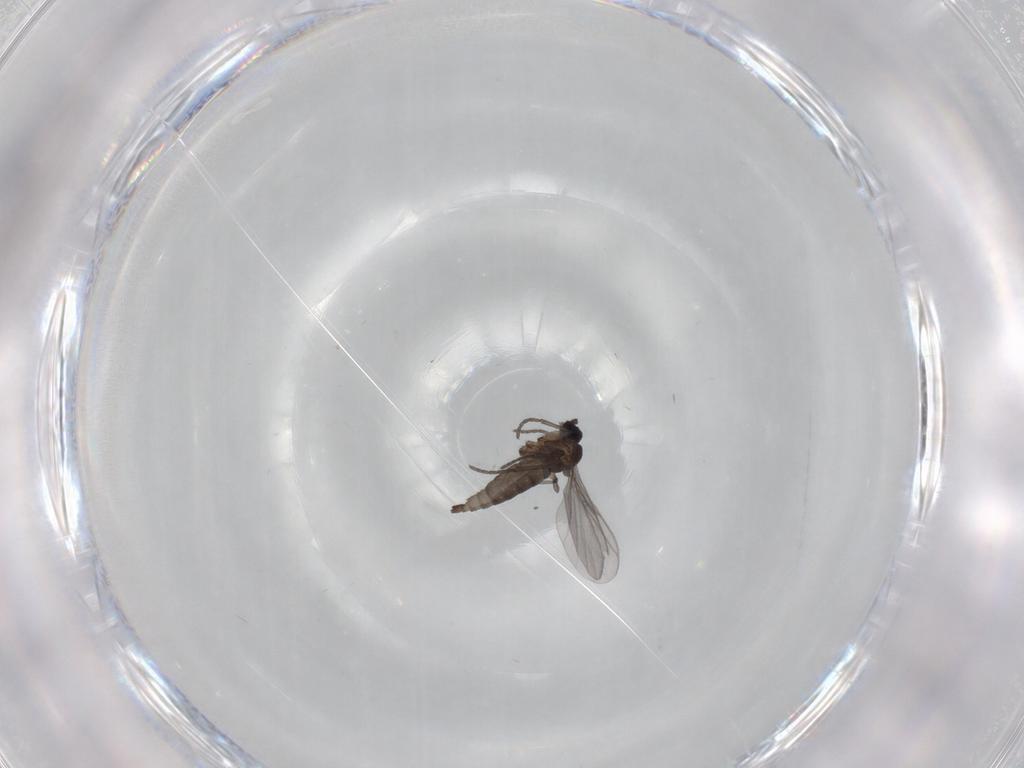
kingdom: Animalia
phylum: Arthropoda
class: Insecta
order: Diptera
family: Sciaridae
